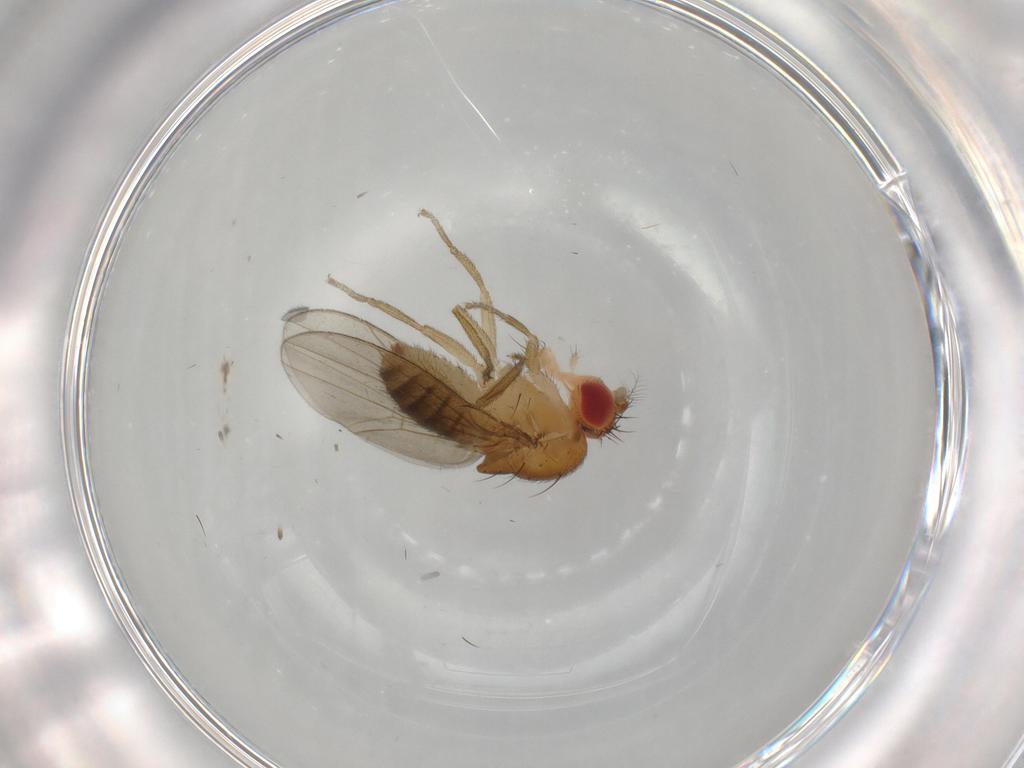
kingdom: Animalia
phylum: Arthropoda
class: Insecta
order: Diptera
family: Drosophilidae
